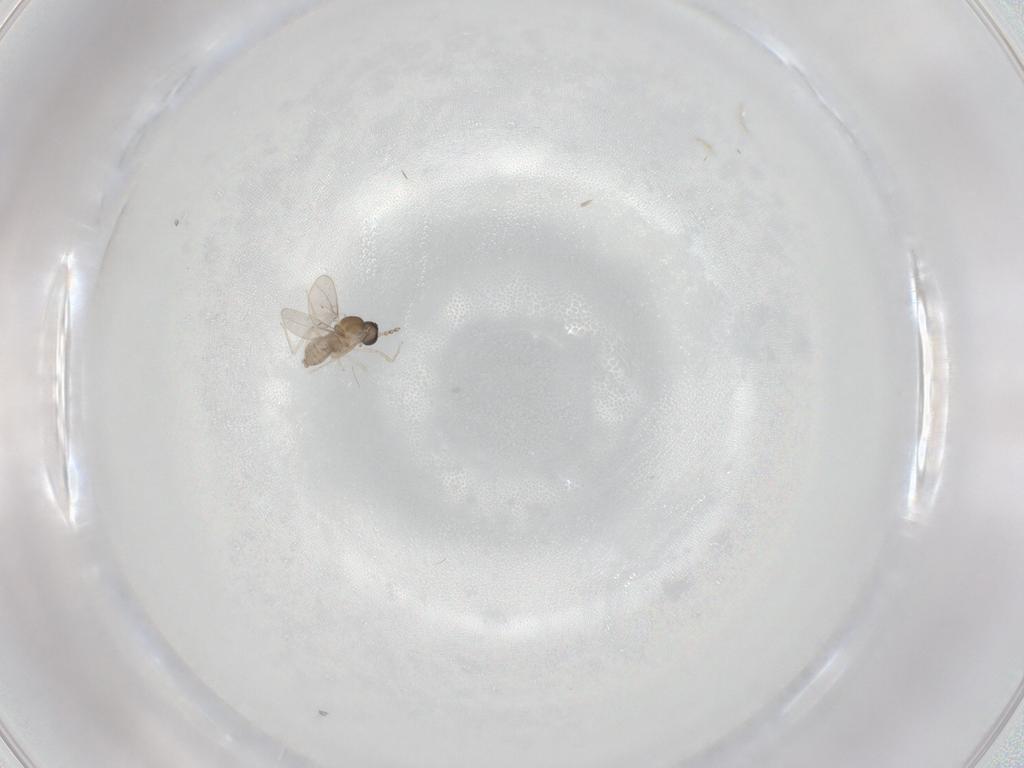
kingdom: Animalia
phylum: Arthropoda
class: Insecta
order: Diptera
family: Cecidomyiidae
